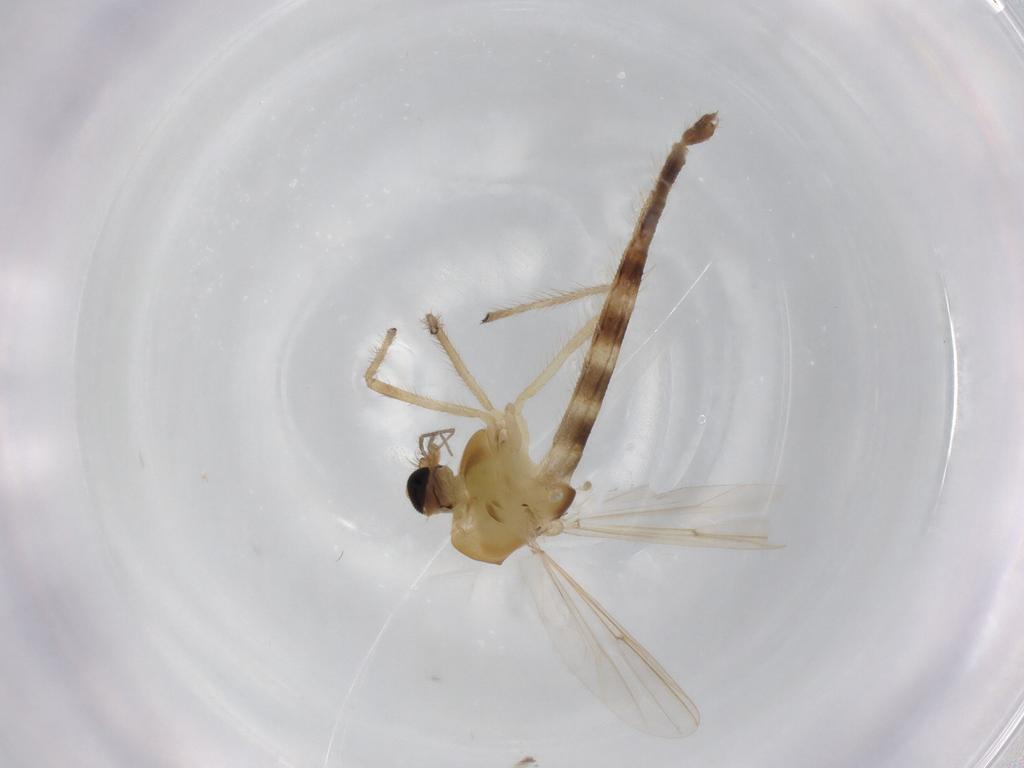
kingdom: Animalia
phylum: Arthropoda
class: Insecta
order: Diptera
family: Chironomidae
